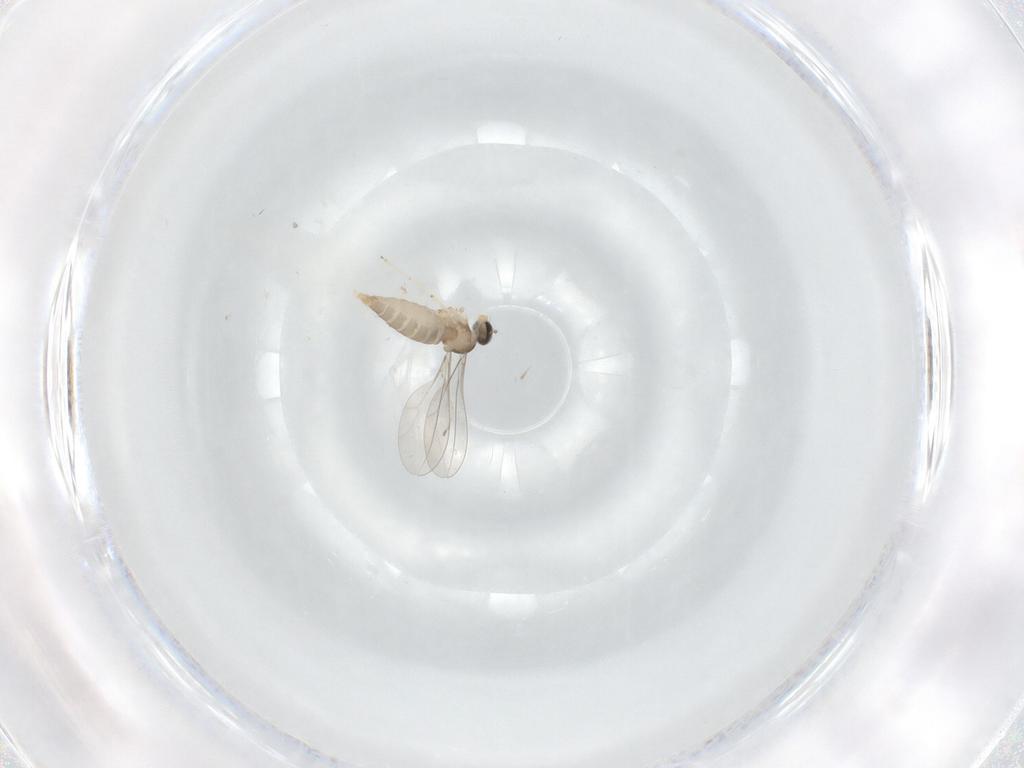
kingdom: Animalia
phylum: Arthropoda
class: Insecta
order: Diptera
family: Cecidomyiidae
